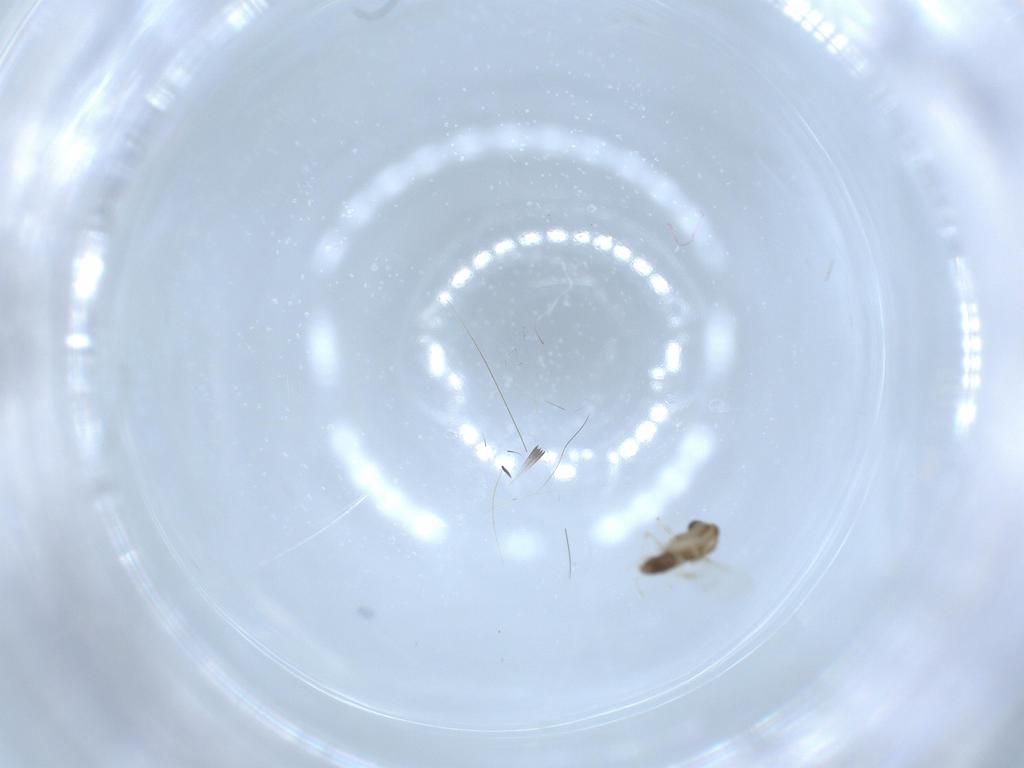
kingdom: Animalia
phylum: Arthropoda
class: Insecta
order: Diptera
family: Chironomidae
